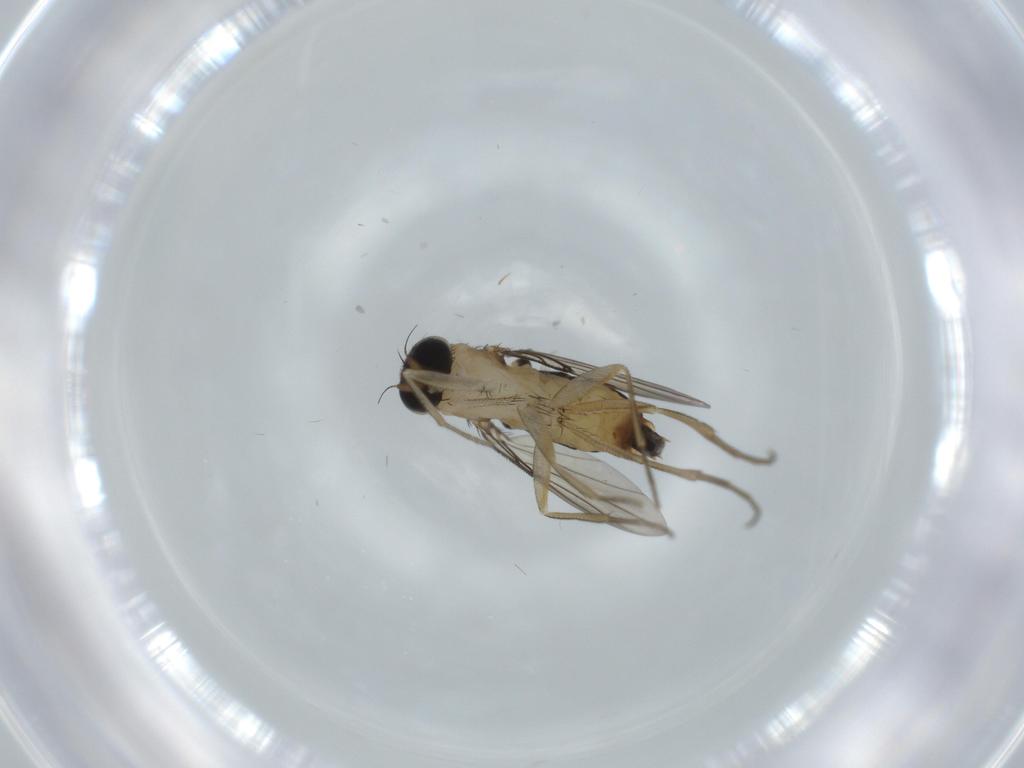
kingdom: Animalia
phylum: Arthropoda
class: Insecta
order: Diptera
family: Phoridae
